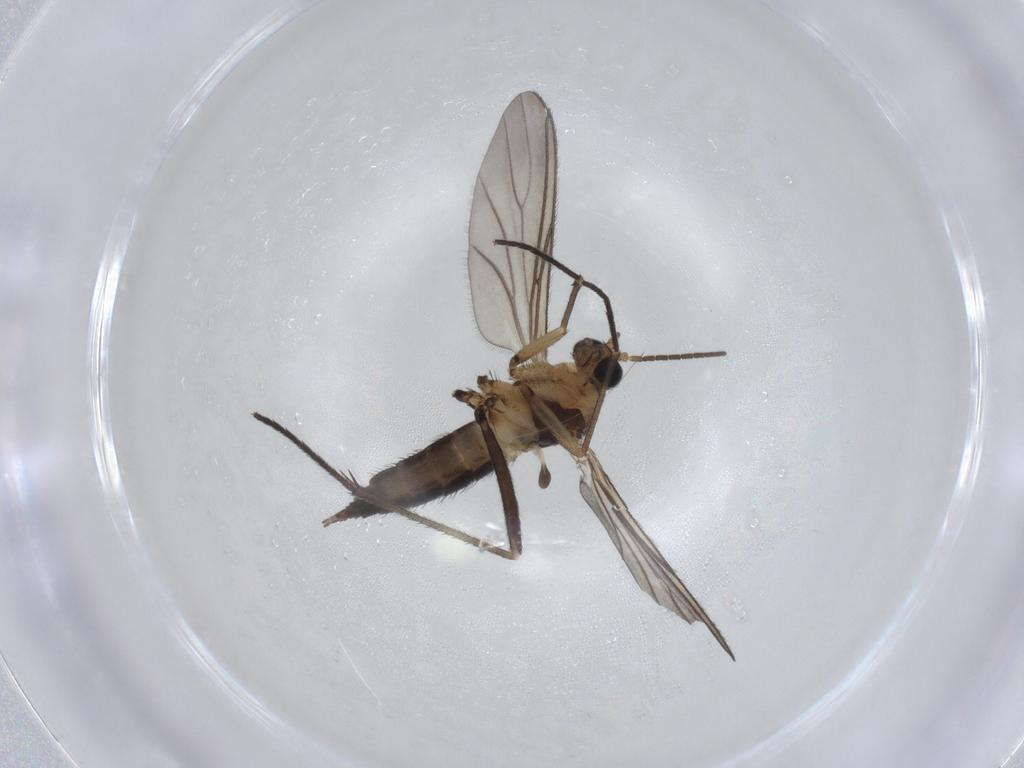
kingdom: Animalia
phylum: Arthropoda
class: Insecta
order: Diptera
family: Sciaridae
